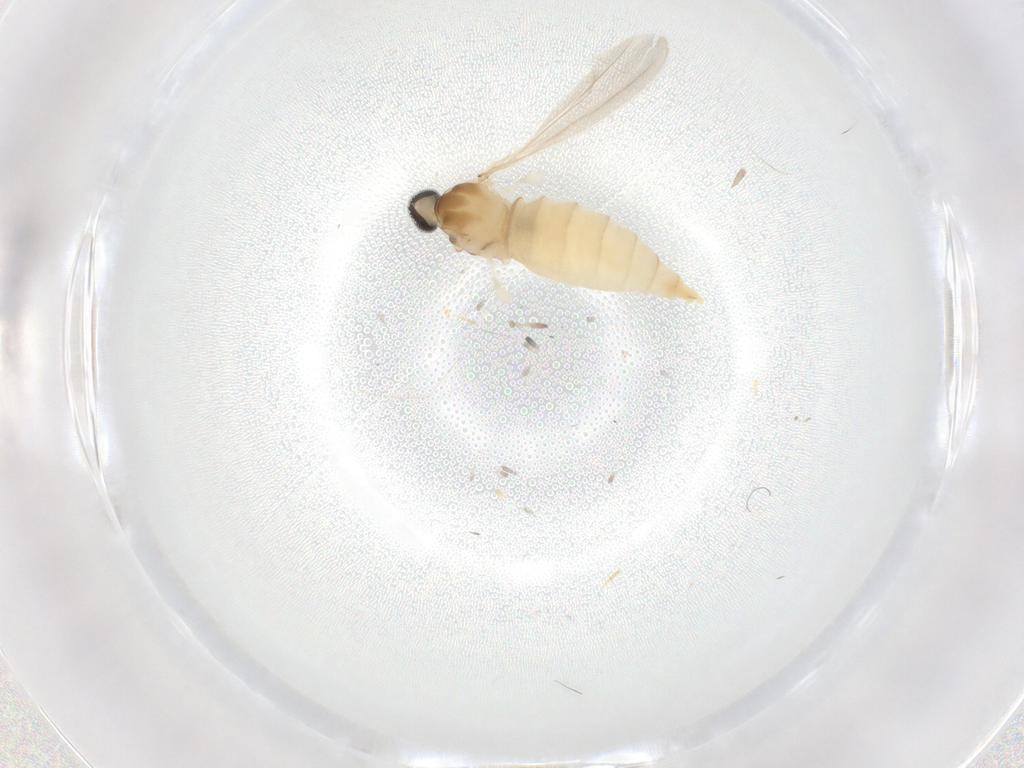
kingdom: Animalia
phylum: Arthropoda
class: Insecta
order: Diptera
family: Cecidomyiidae
